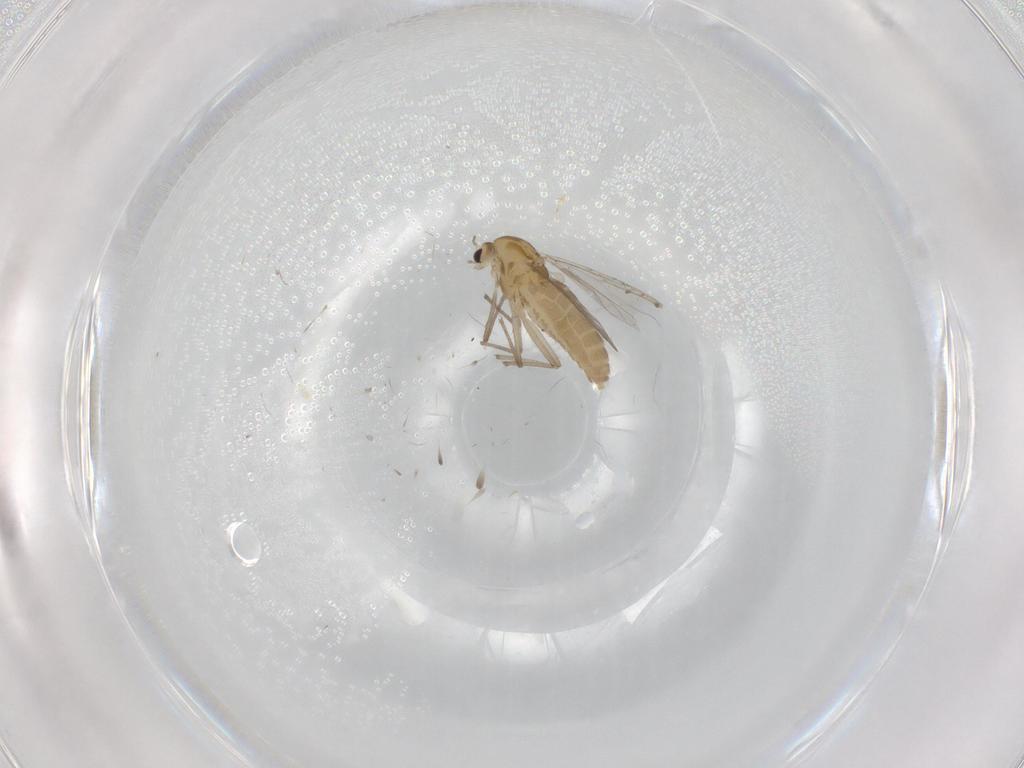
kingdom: Animalia
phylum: Arthropoda
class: Insecta
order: Diptera
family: Chironomidae
